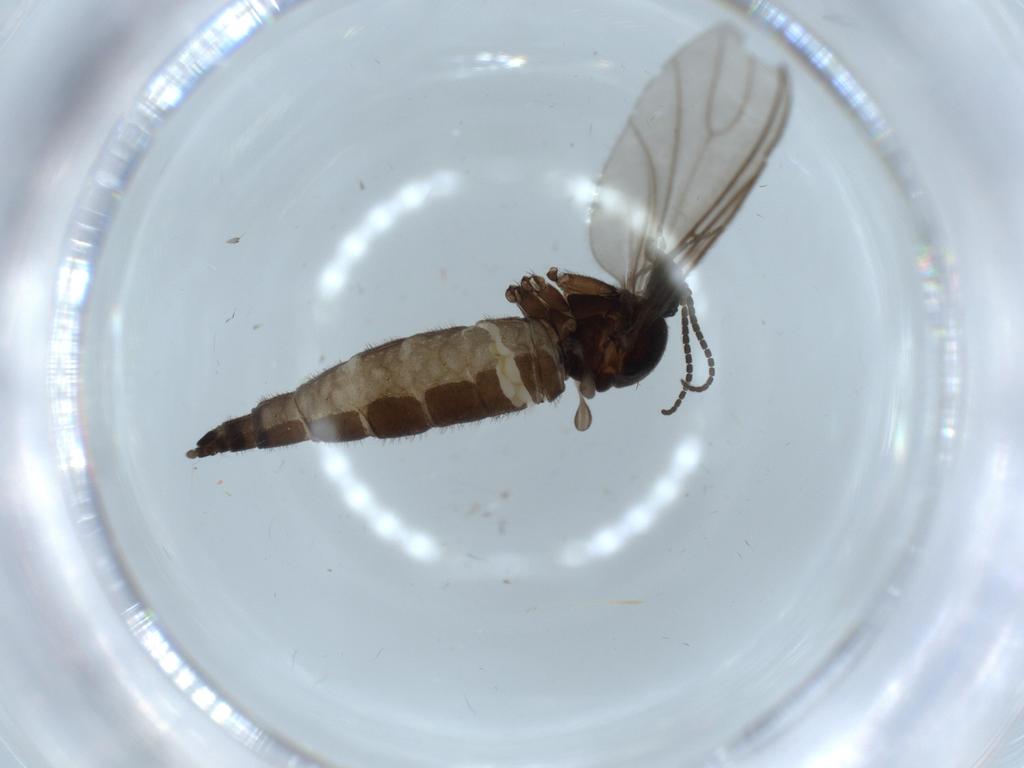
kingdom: Animalia
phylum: Arthropoda
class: Insecta
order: Diptera
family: Sciaridae
